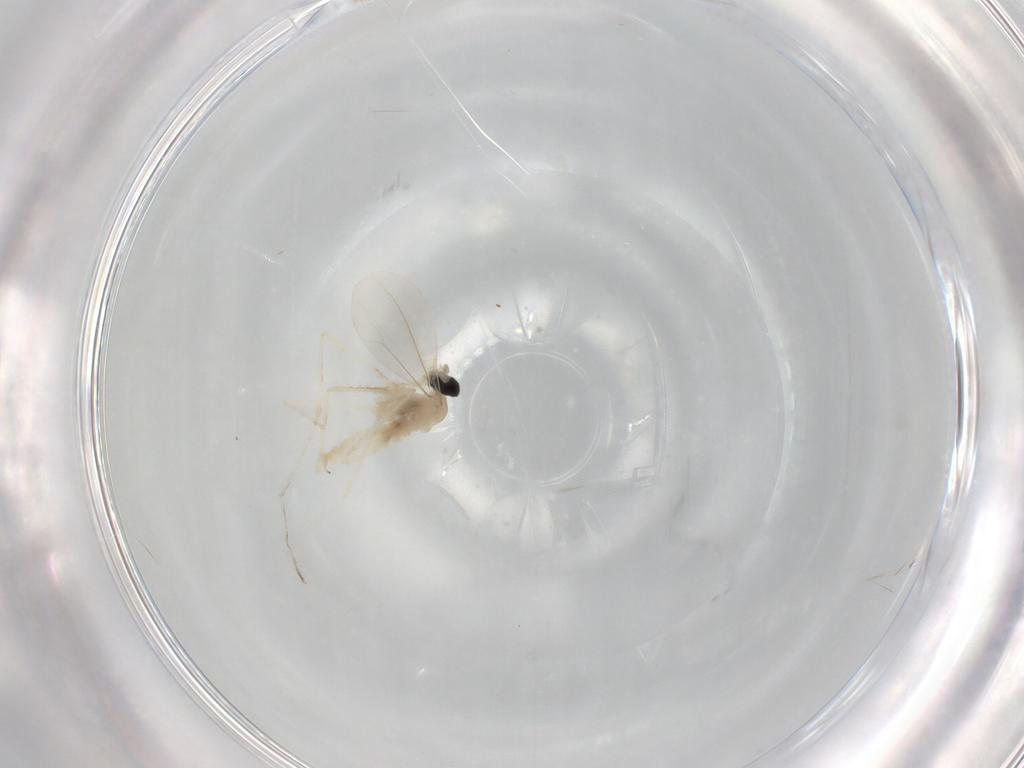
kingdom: Animalia
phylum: Arthropoda
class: Insecta
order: Diptera
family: Cecidomyiidae
